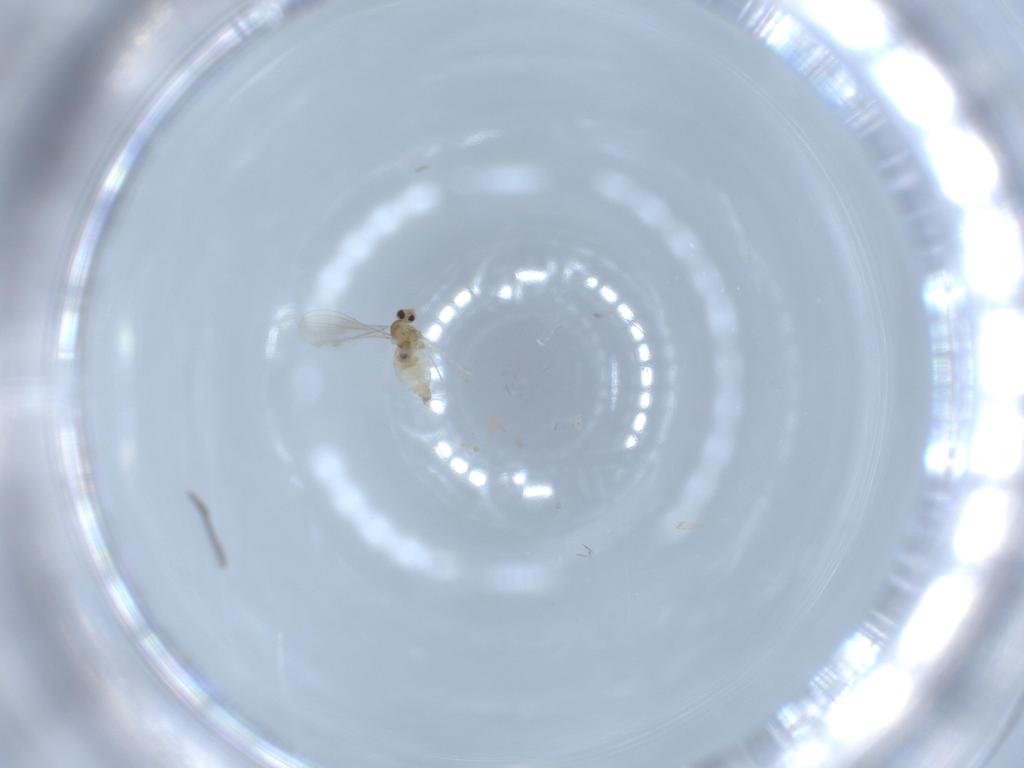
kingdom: Animalia
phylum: Arthropoda
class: Insecta
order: Diptera
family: Cecidomyiidae
